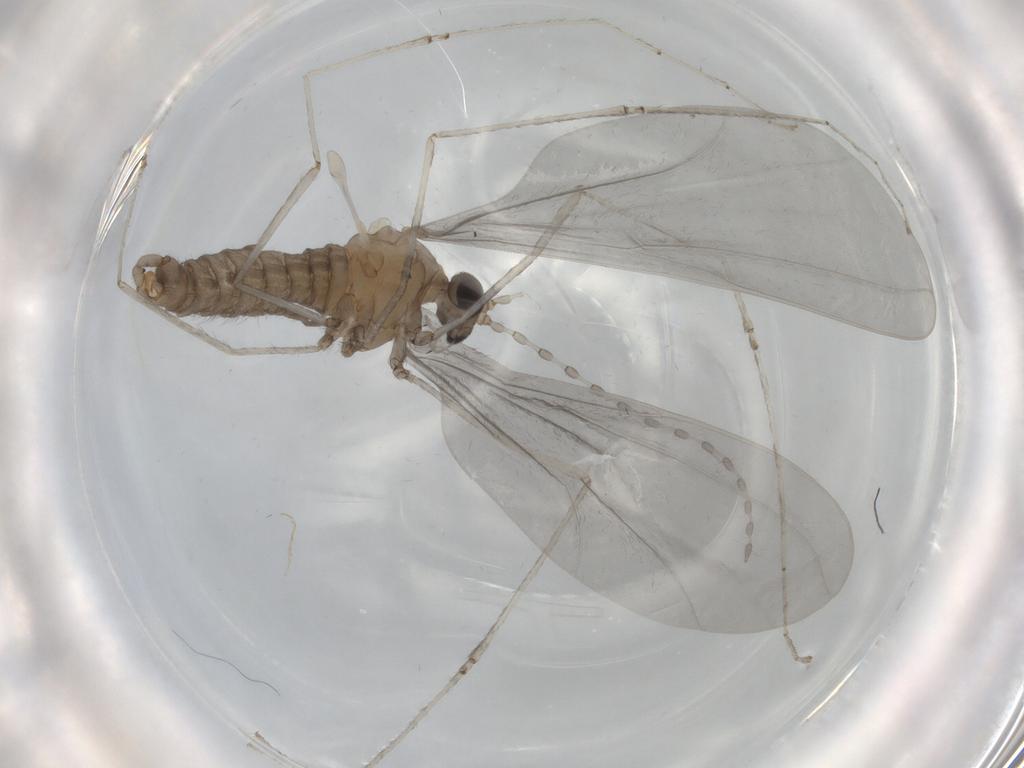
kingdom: Animalia
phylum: Arthropoda
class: Insecta
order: Diptera
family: Cecidomyiidae
